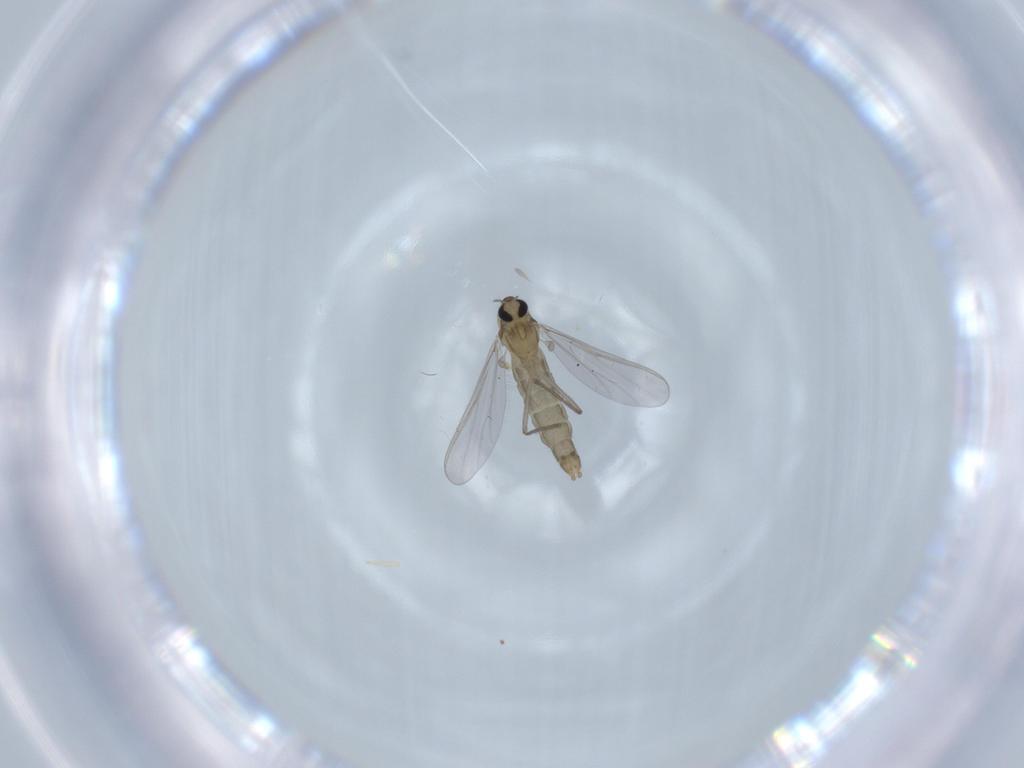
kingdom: Animalia
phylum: Arthropoda
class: Insecta
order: Diptera
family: Chironomidae
